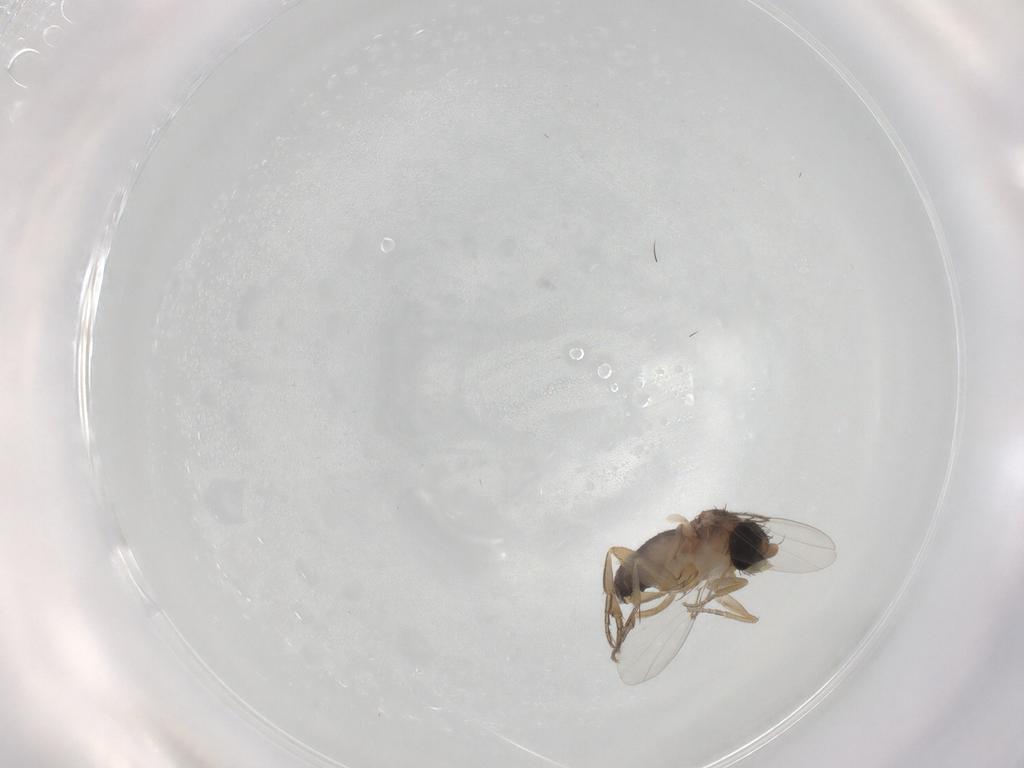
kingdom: Animalia
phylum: Arthropoda
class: Insecta
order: Diptera
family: Phoridae
